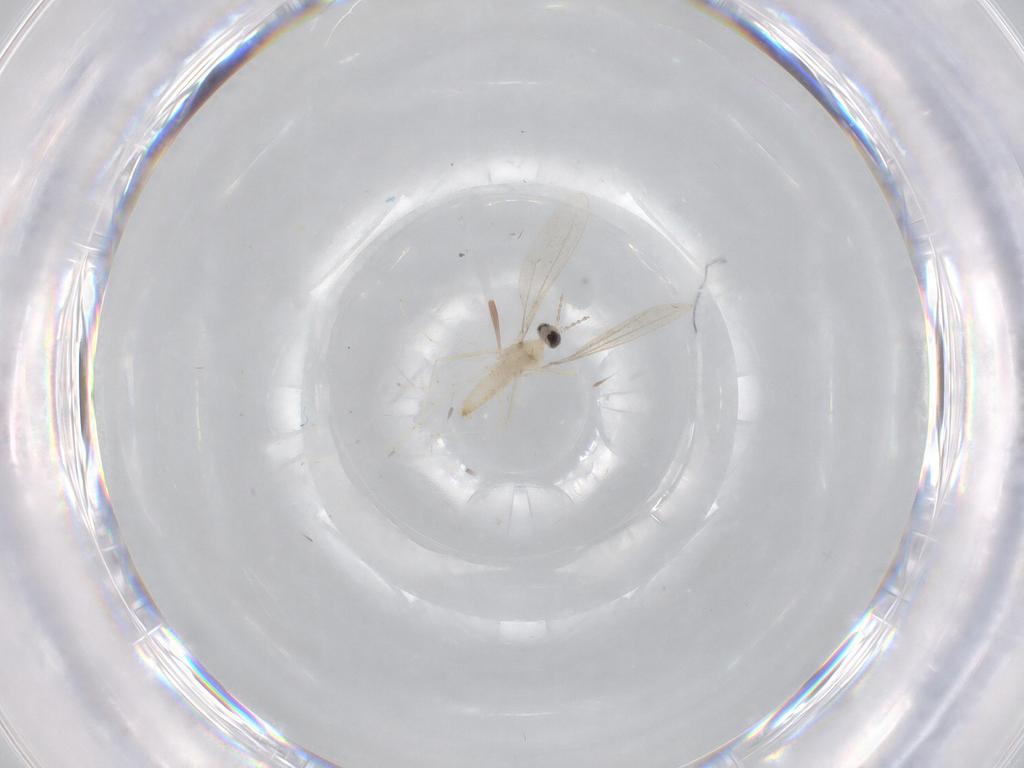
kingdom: Animalia
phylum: Arthropoda
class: Insecta
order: Diptera
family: Cecidomyiidae
